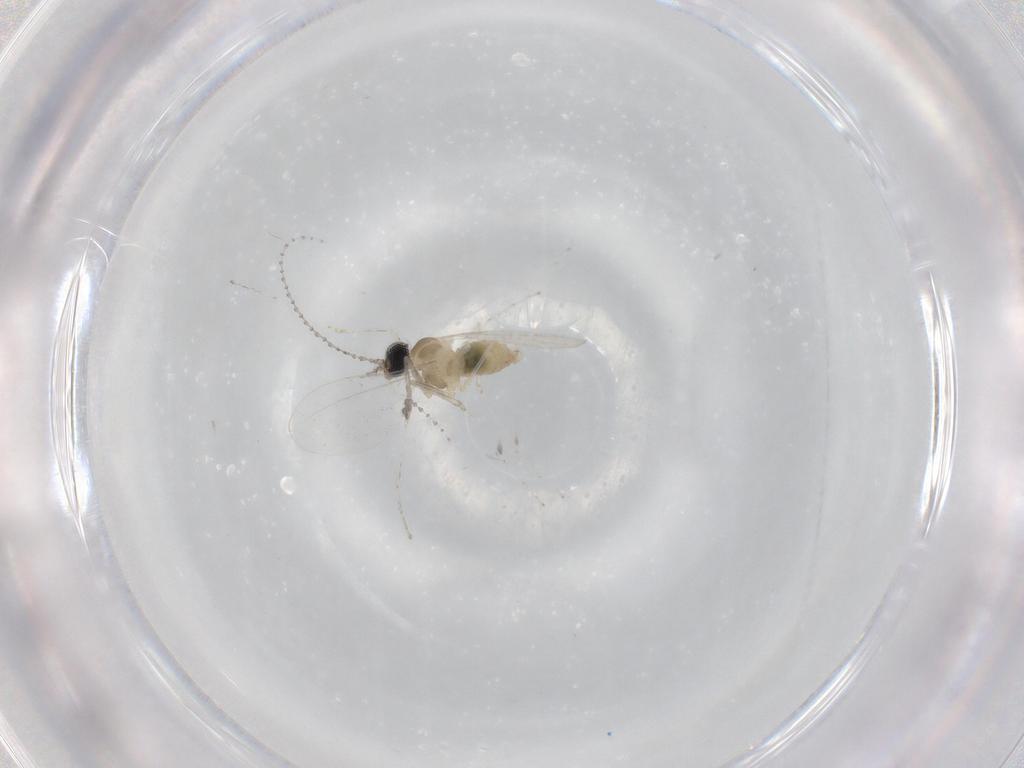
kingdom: Animalia
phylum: Arthropoda
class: Insecta
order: Diptera
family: Cecidomyiidae
